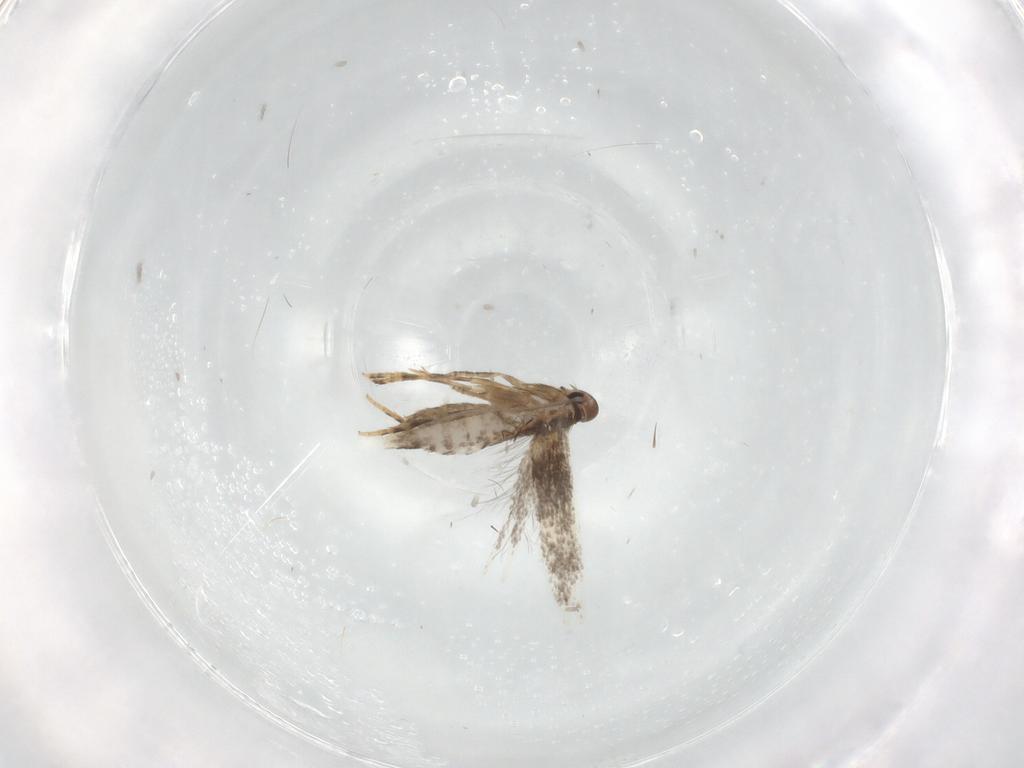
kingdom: Animalia
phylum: Arthropoda
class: Insecta
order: Lepidoptera
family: Elachistidae
